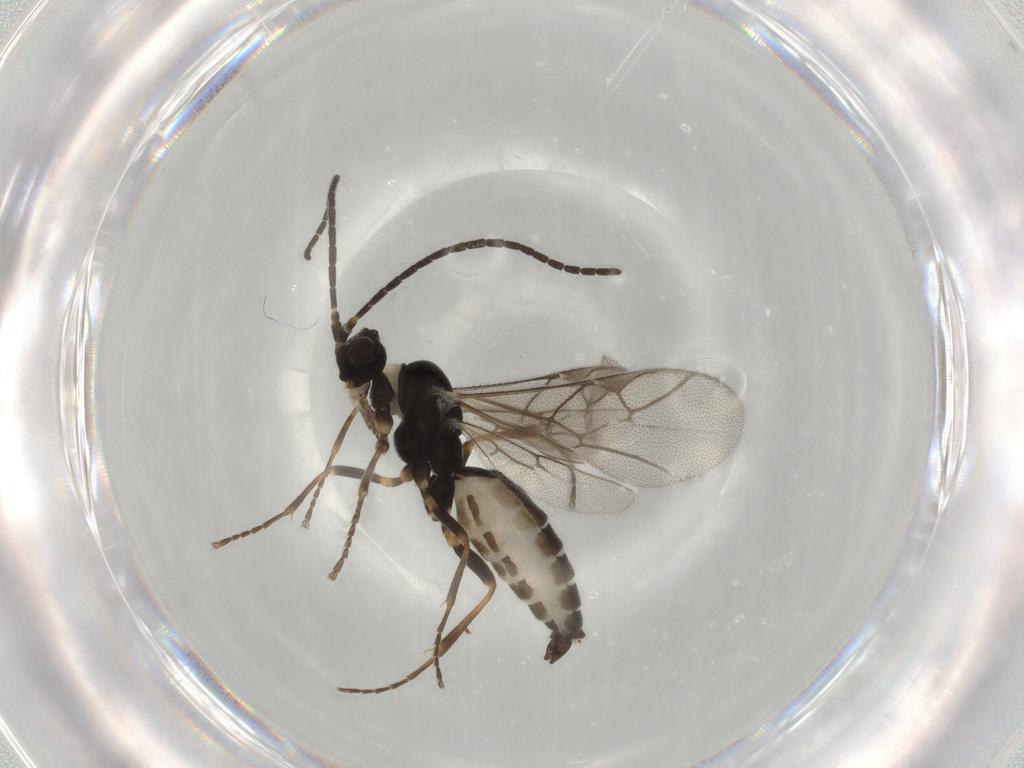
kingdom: Animalia
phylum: Arthropoda
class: Insecta
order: Hymenoptera
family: Ichneumonidae
